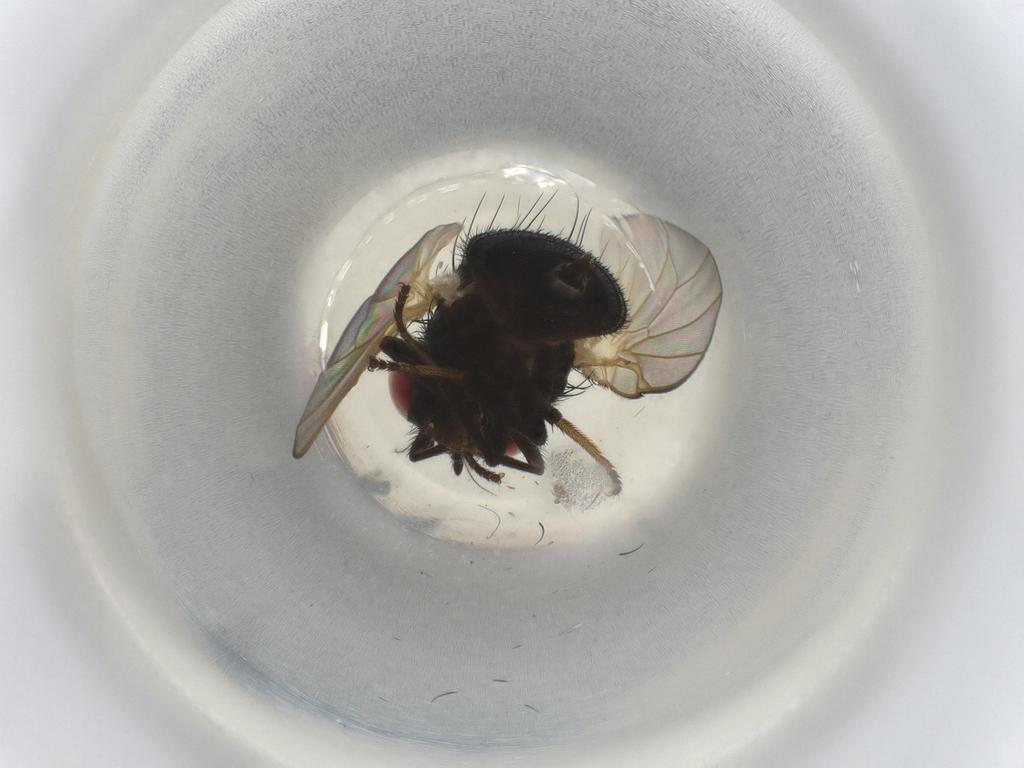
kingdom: Animalia
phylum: Arthropoda
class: Insecta
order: Diptera
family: Lonchaeidae
